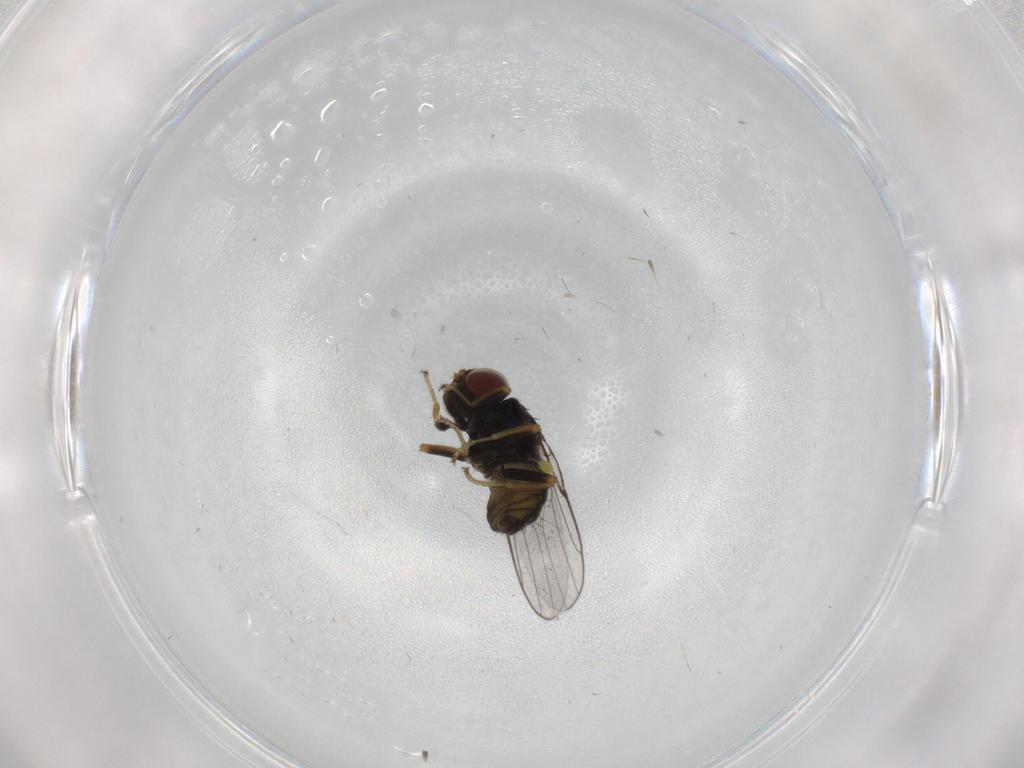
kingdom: Animalia
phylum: Arthropoda
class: Insecta
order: Diptera
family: Chloropidae
